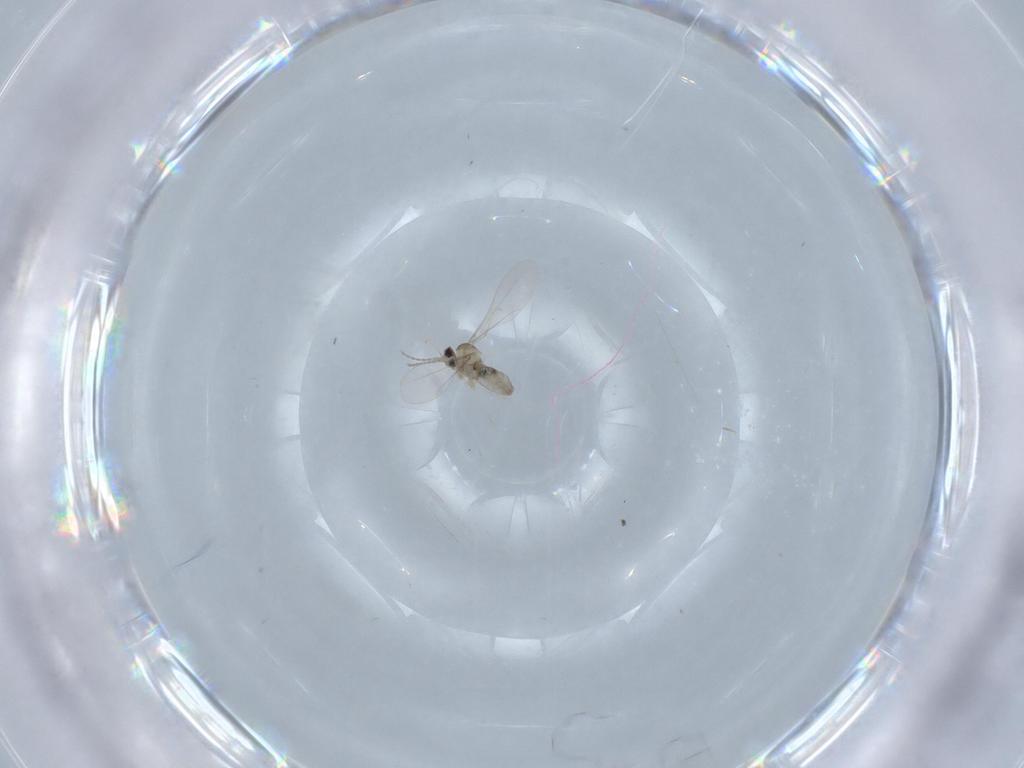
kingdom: Animalia
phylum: Arthropoda
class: Insecta
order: Diptera
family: Cecidomyiidae
